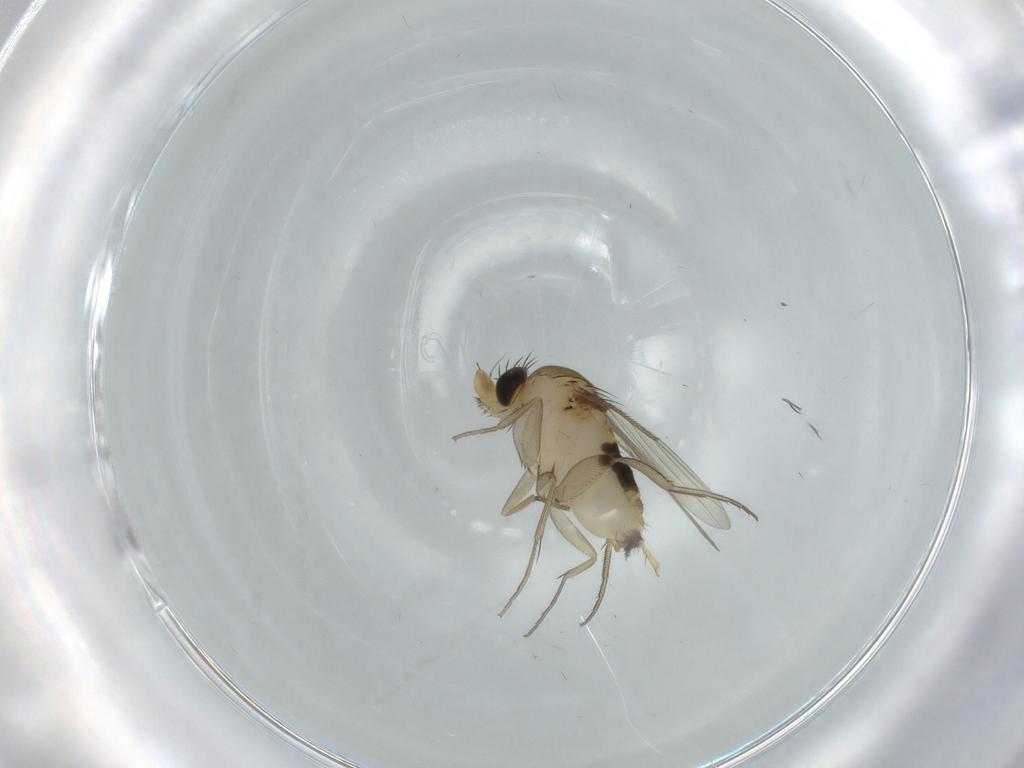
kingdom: Animalia
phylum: Arthropoda
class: Insecta
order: Diptera
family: Phoridae
